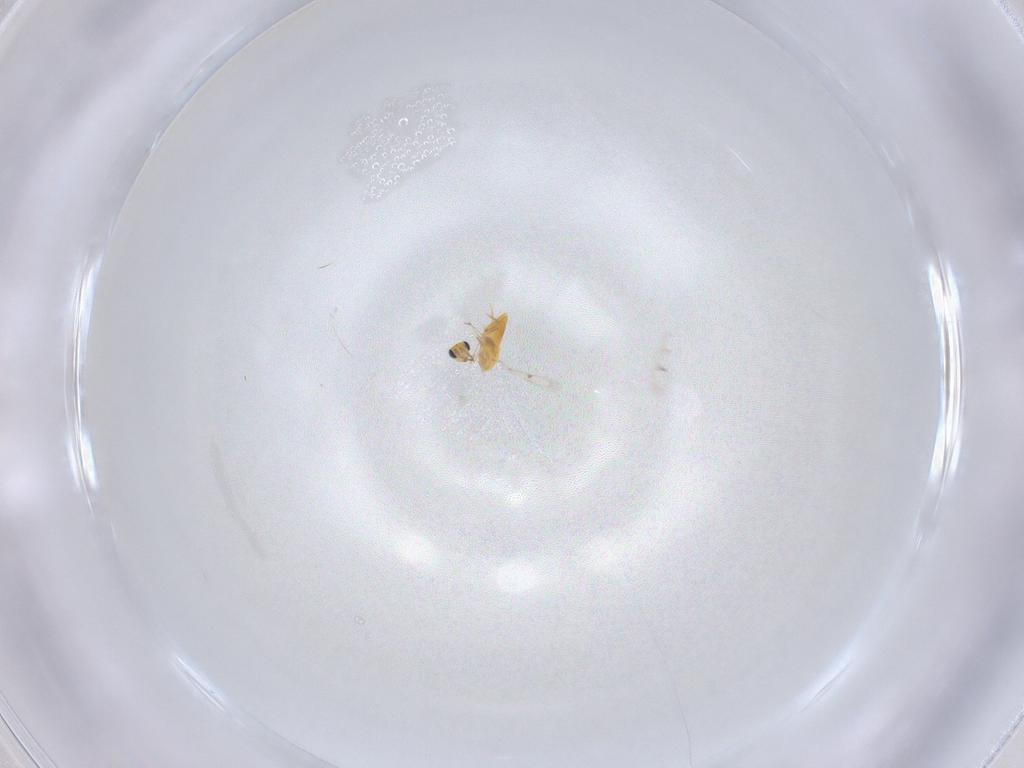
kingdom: Animalia
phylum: Arthropoda
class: Insecta
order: Hymenoptera
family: Trichogrammatidae
